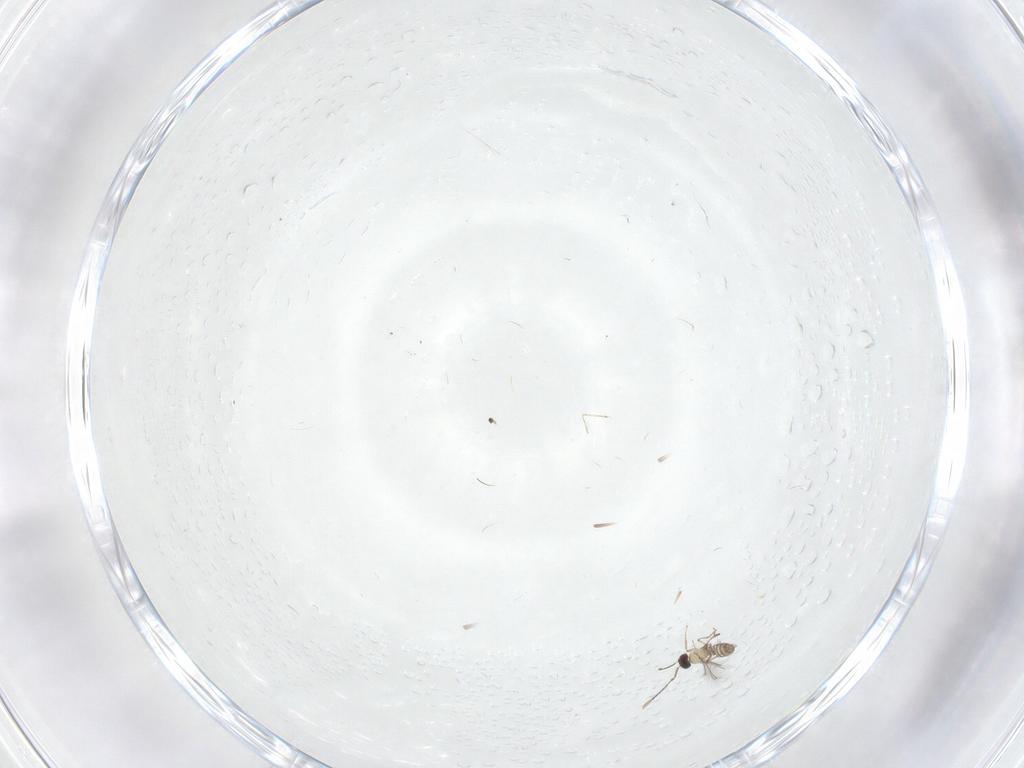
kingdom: Animalia
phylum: Arthropoda
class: Insecta
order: Hymenoptera
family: Mymaridae
